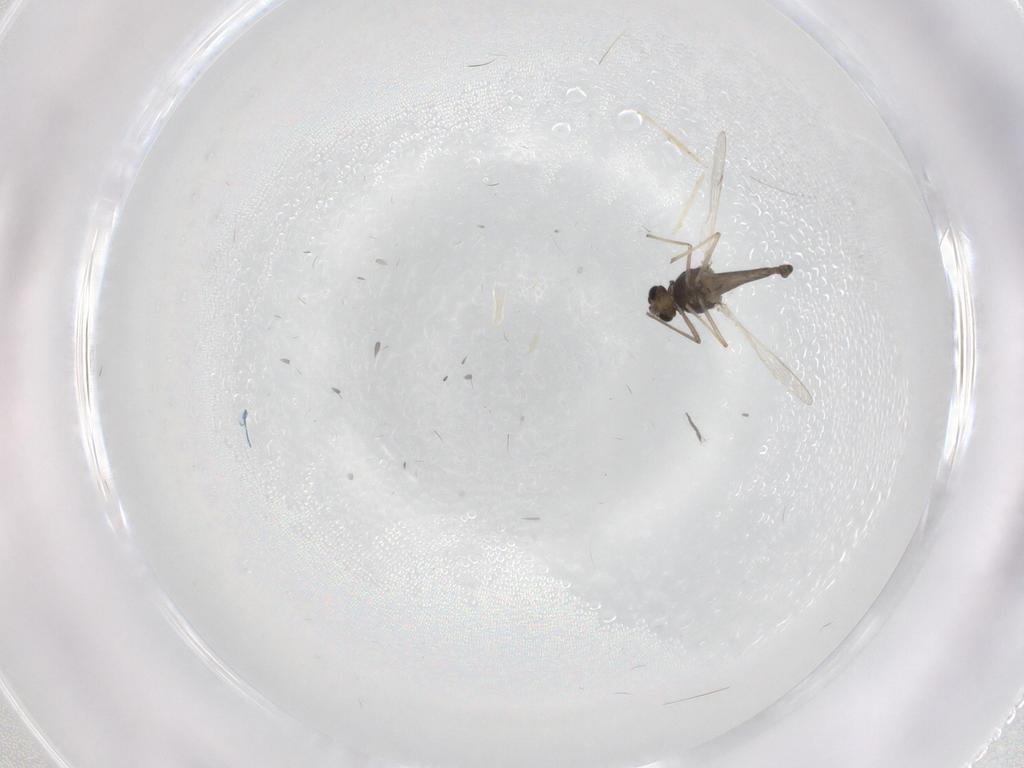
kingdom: Animalia
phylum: Arthropoda
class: Insecta
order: Diptera
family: Chironomidae
